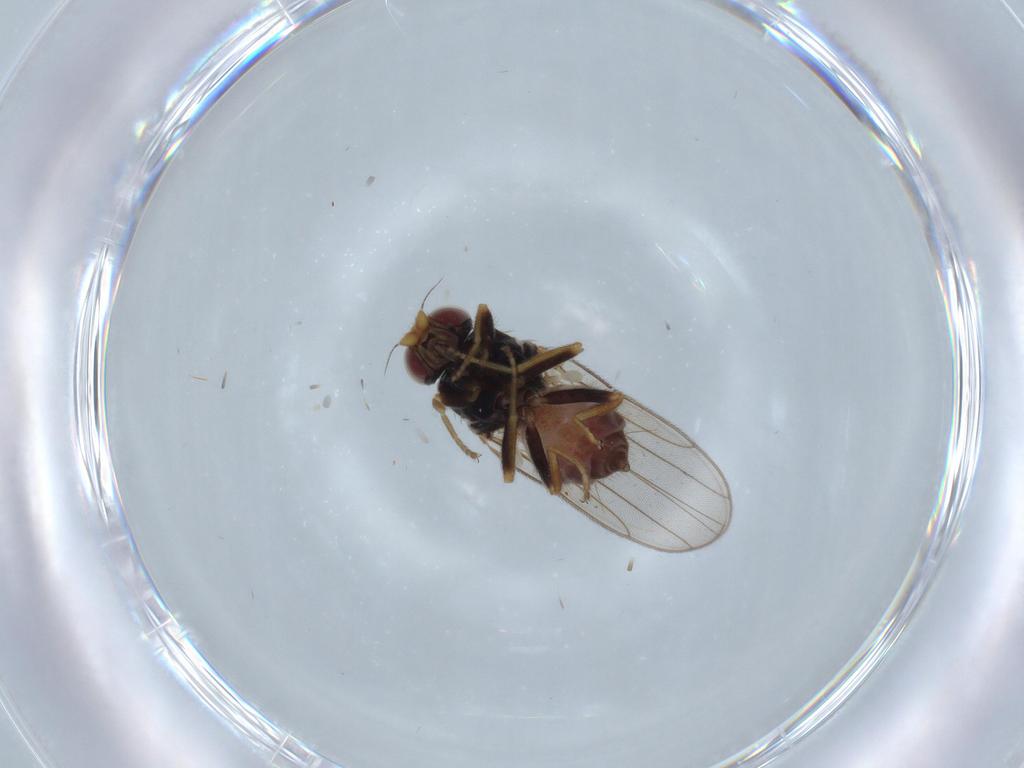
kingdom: Animalia
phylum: Arthropoda
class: Insecta
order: Diptera
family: Chloropidae
